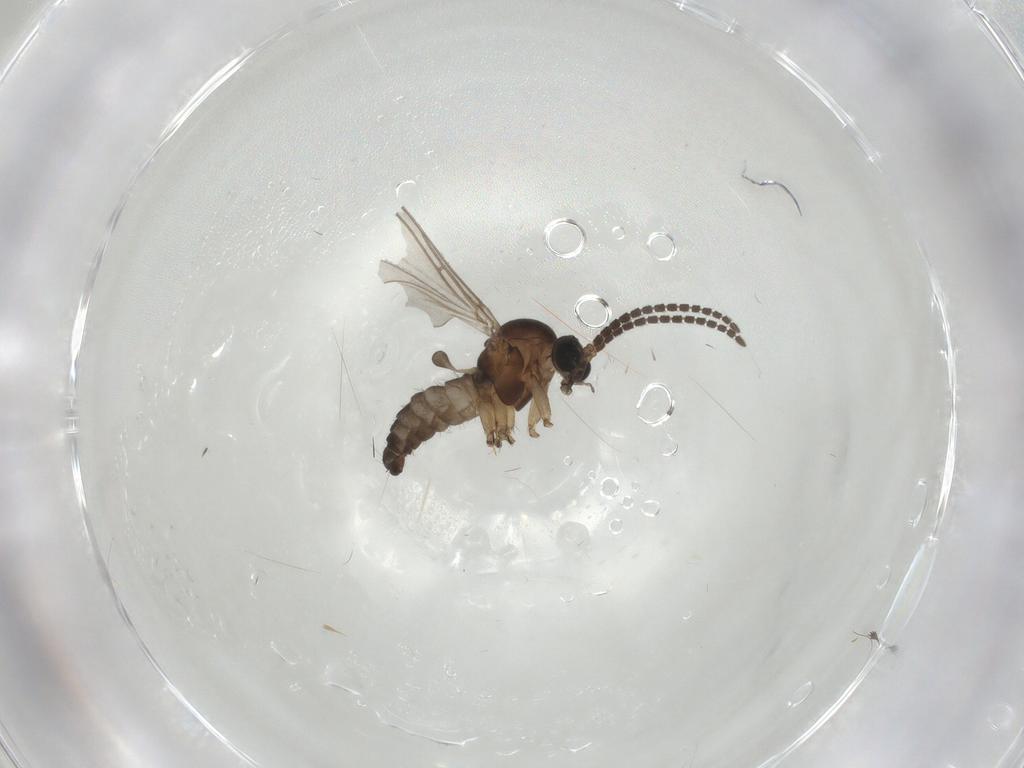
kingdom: Animalia
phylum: Arthropoda
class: Insecta
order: Diptera
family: Sciaridae
